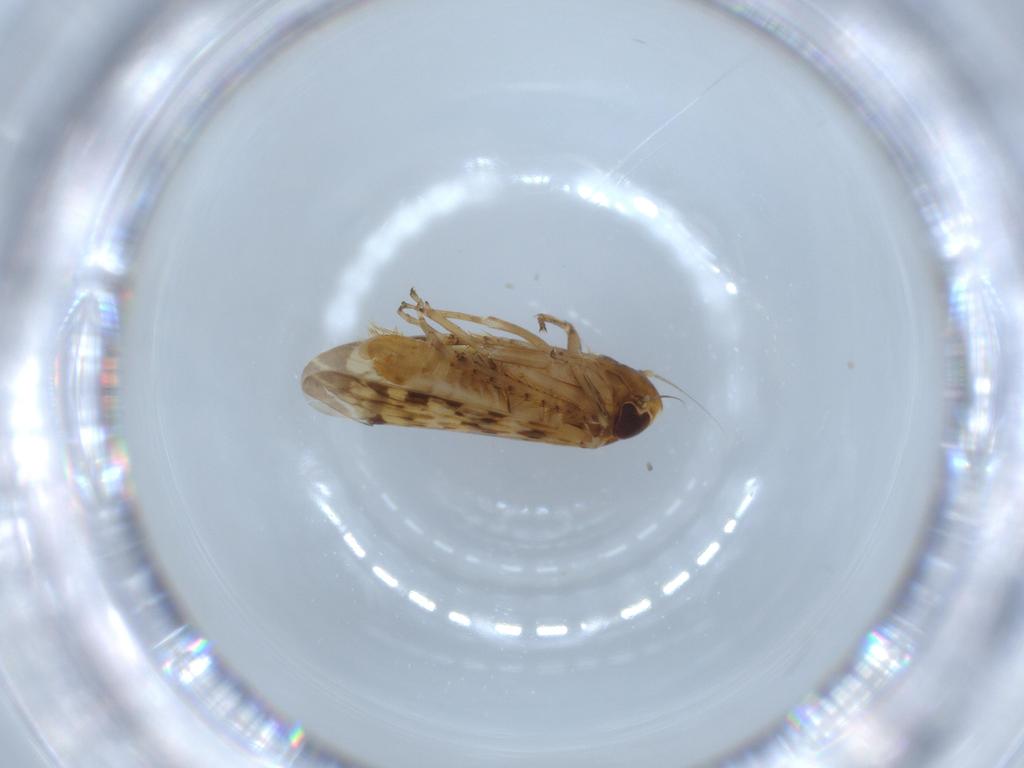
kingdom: Animalia
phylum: Arthropoda
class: Insecta
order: Hemiptera
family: Cicadellidae
